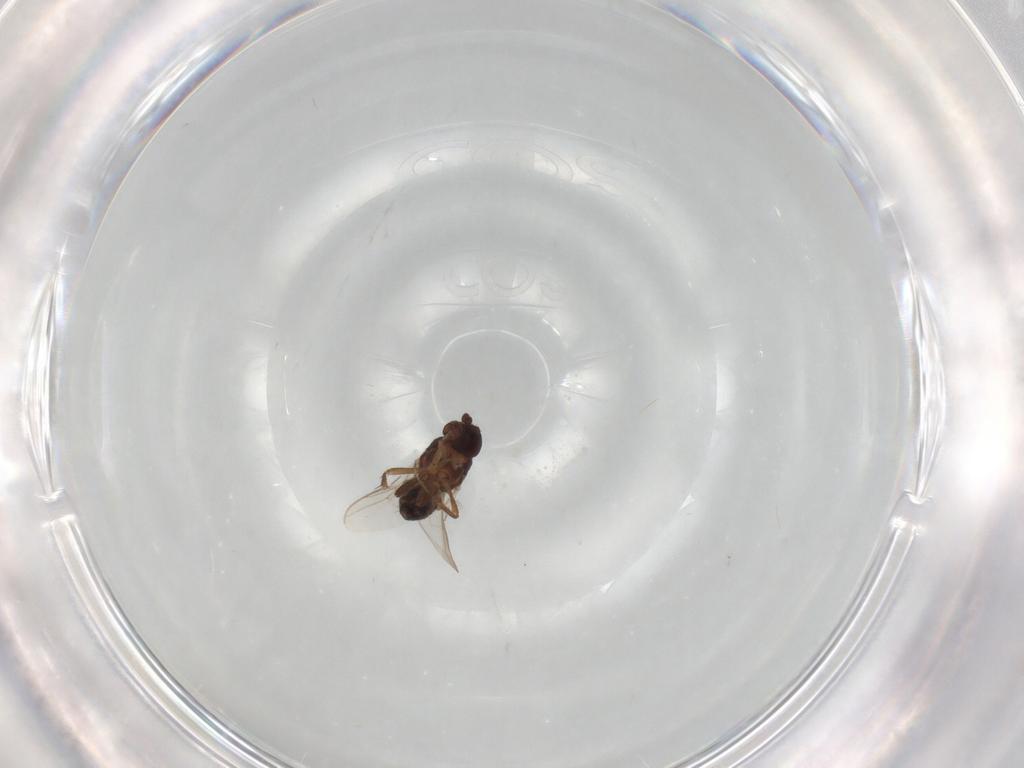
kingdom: Animalia
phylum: Arthropoda
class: Insecta
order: Diptera
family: Sphaeroceridae
